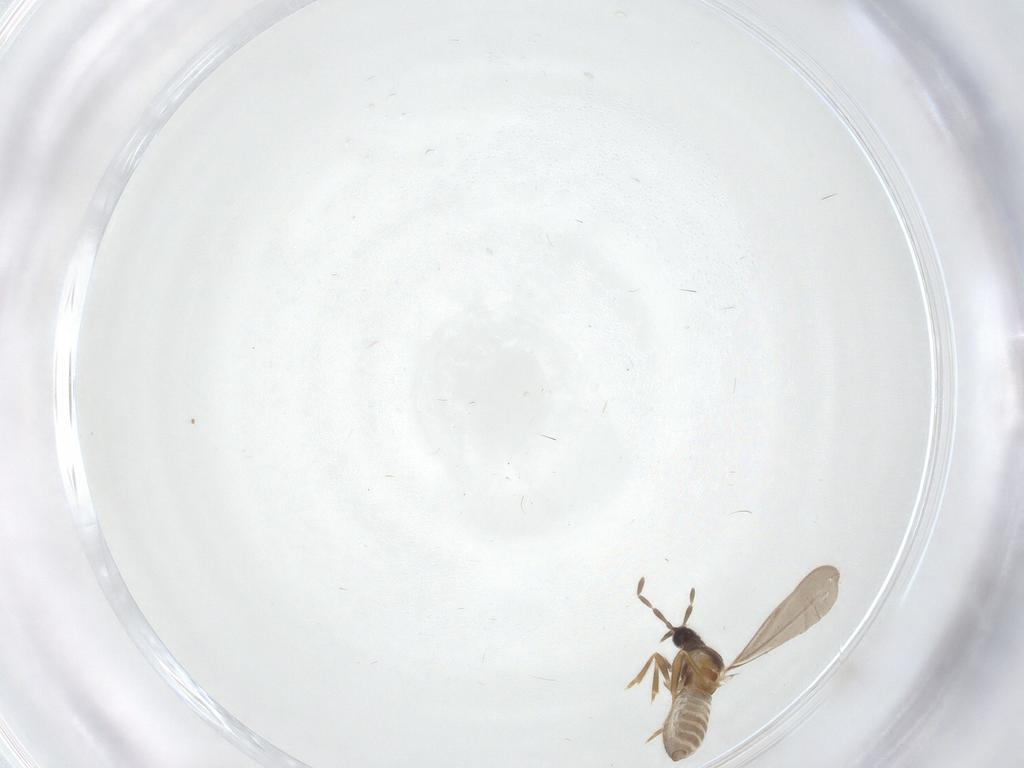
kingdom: Animalia
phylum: Arthropoda
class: Insecta
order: Hemiptera
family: Enicocephalidae
